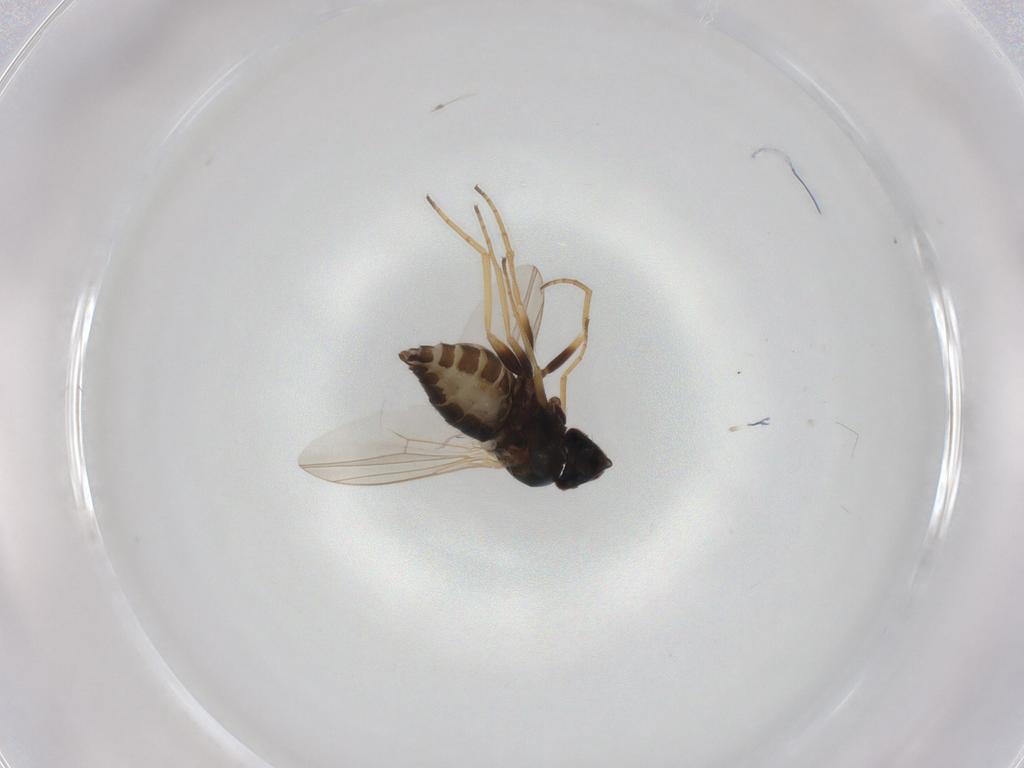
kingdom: Animalia
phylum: Arthropoda
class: Insecta
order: Diptera
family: Dolichopodidae
